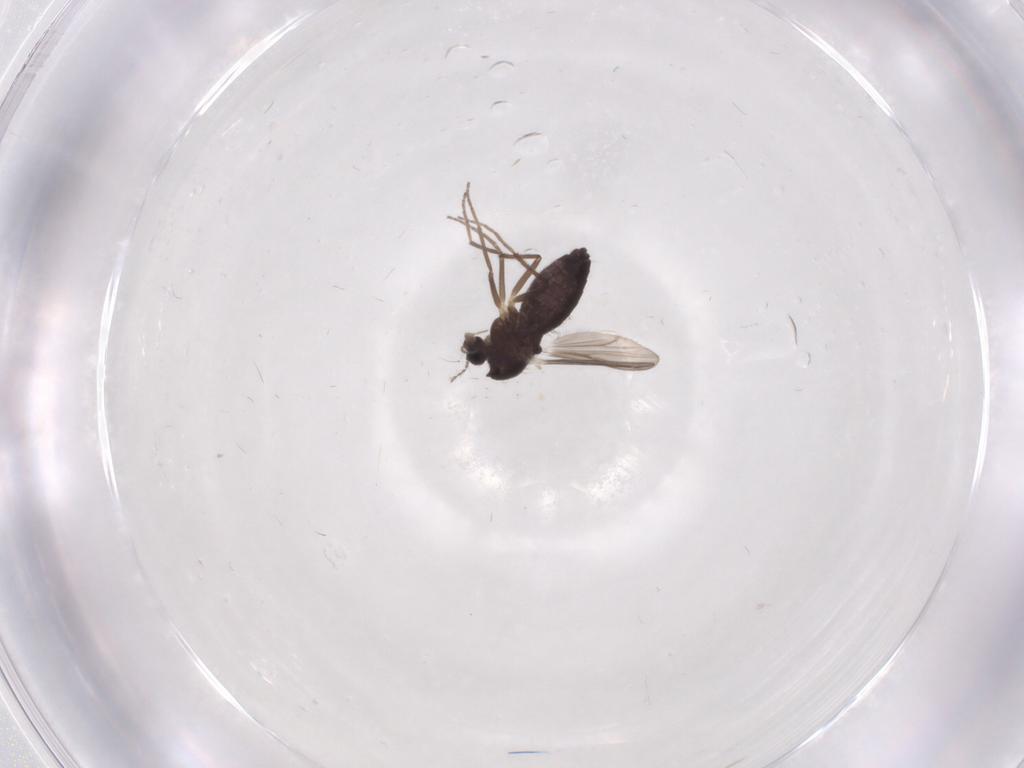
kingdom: Animalia
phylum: Arthropoda
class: Insecta
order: Diptera
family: Chironomidae
